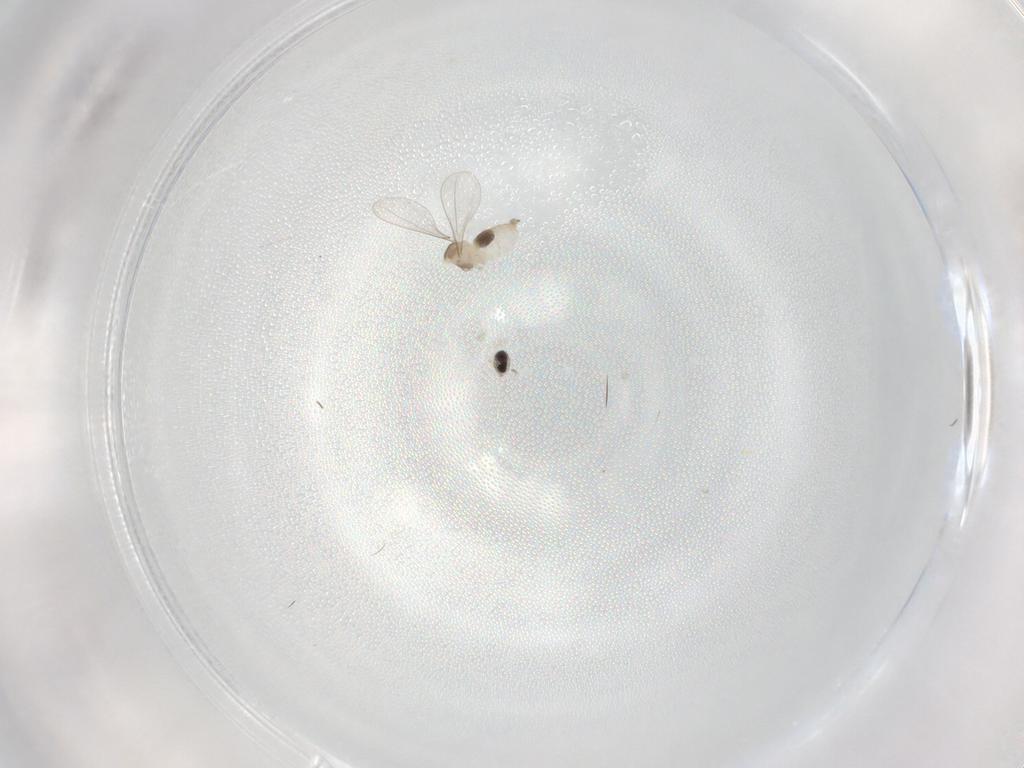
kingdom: Animalia
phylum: Arthropoda
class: Insecta
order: Diptera
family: Cecidomyiidae
